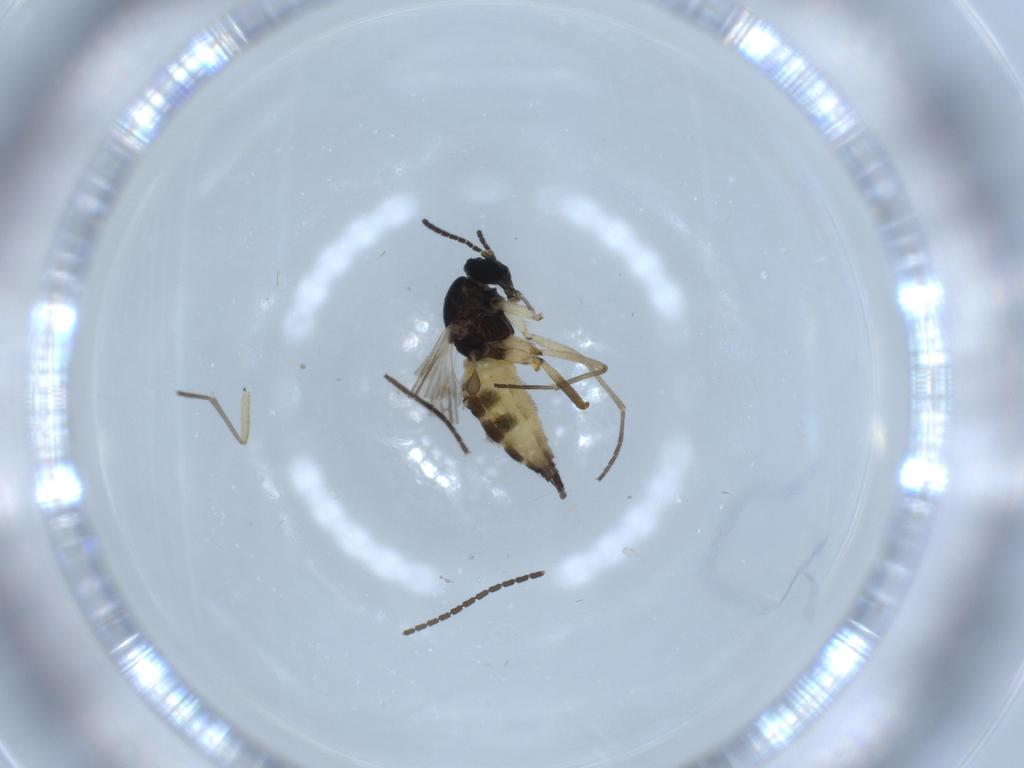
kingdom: Animalia
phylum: Arthropoda
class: Insecta
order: Diptera
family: Sciaridae
